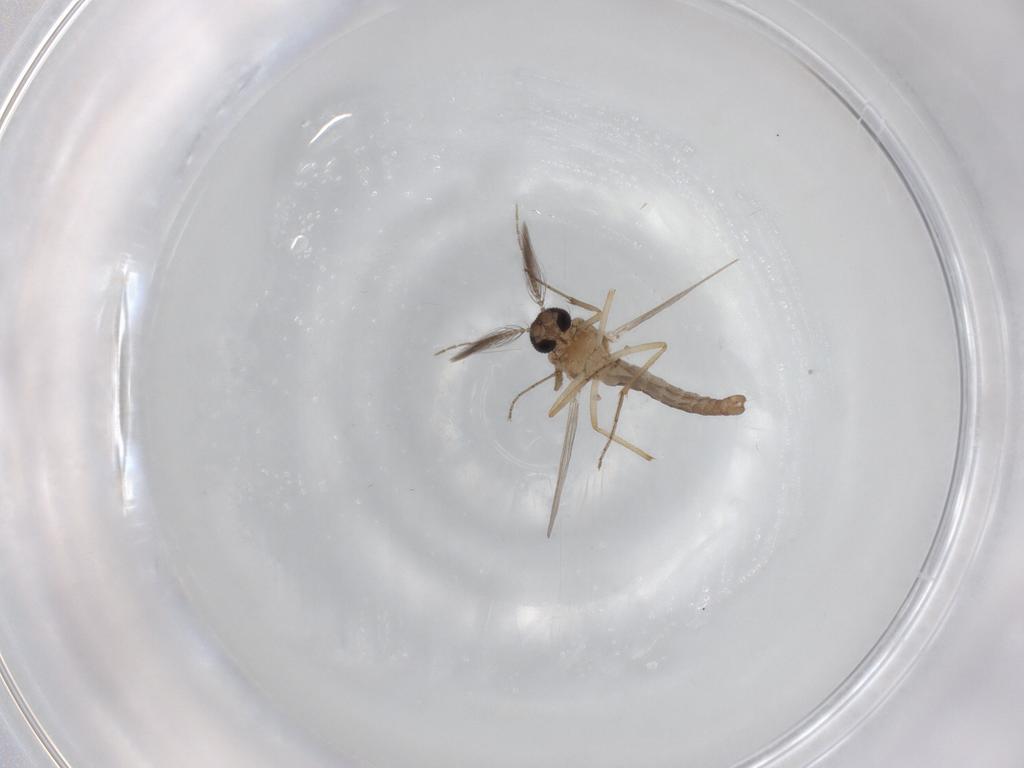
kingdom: Animalia
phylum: Arthropoda
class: Insecta
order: Diptera
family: Ceratopogonidae
